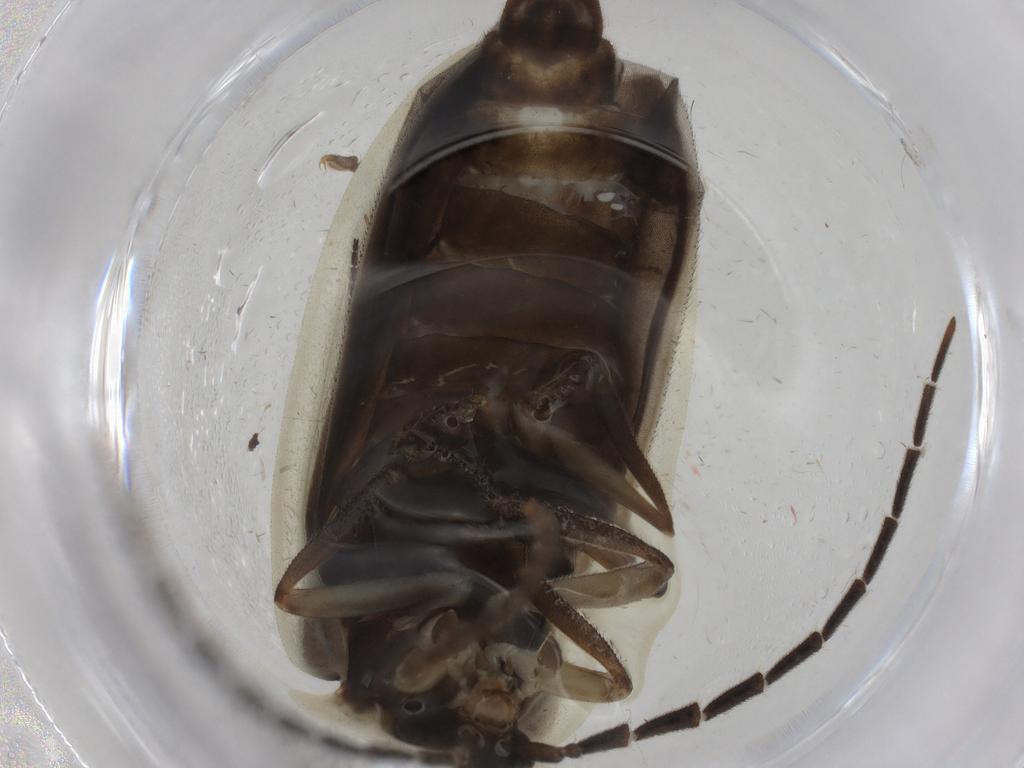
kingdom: Animalia
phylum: Arthropoda
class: Insecta
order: Coleoptera
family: Lampyridae
